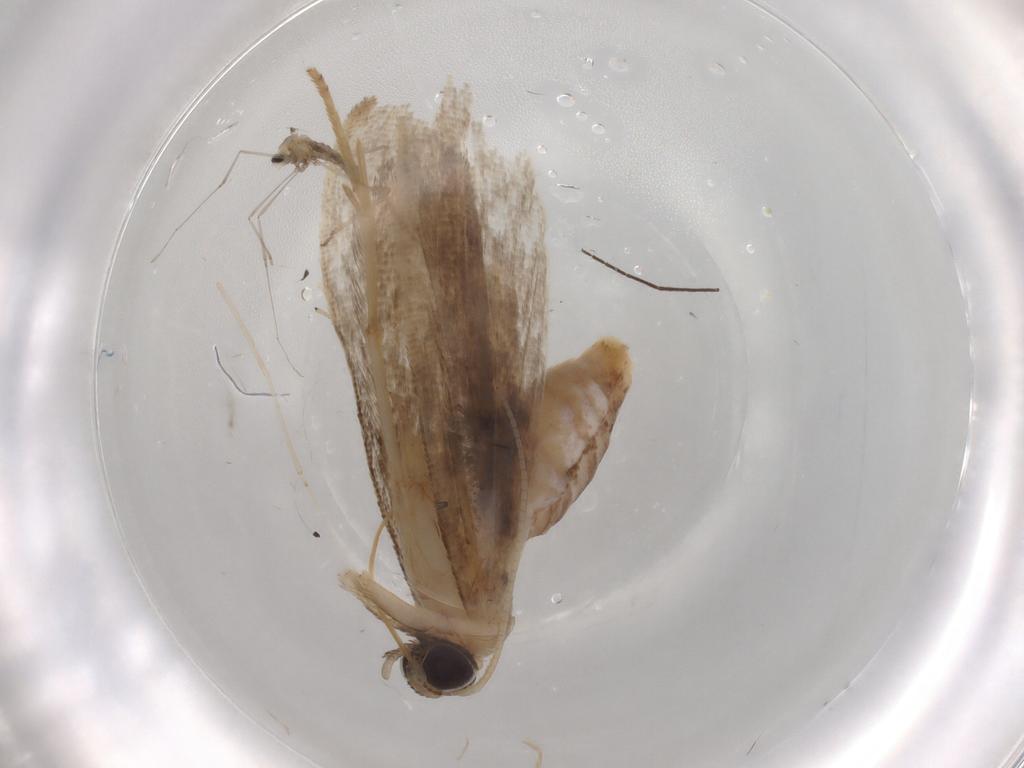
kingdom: Animalia
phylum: Arthropoda
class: Insecta
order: Lepidoptera
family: Noctuidae
